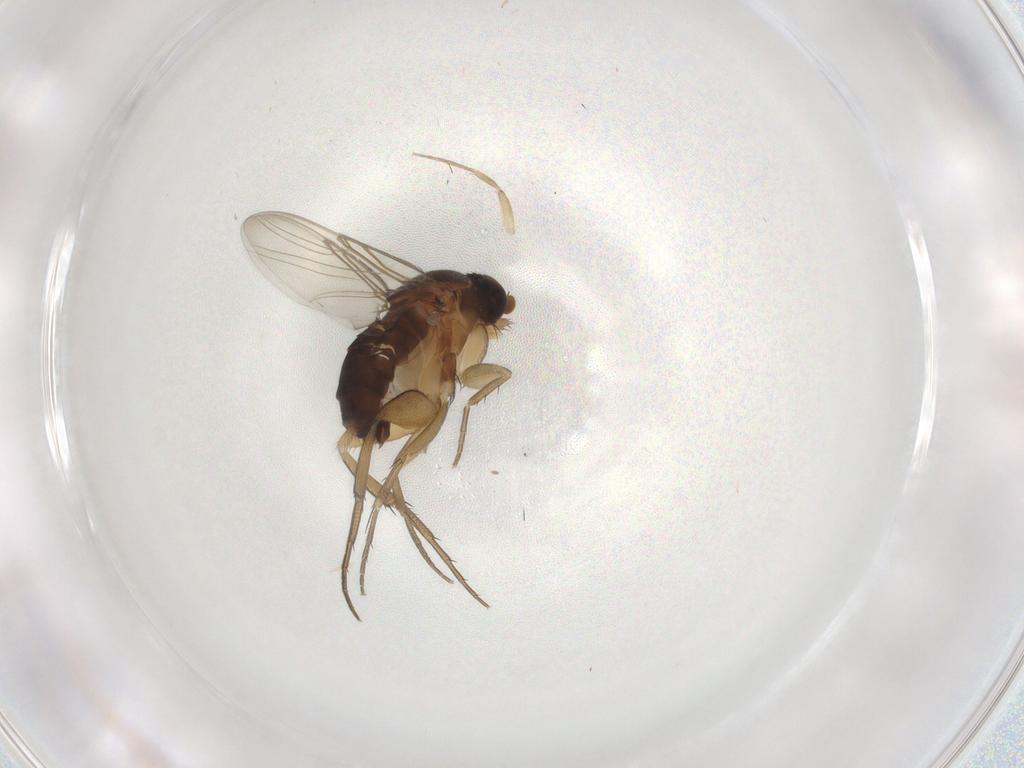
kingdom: Animalia
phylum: Arthropoda
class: Insecta
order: Diptera
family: Phoridae
